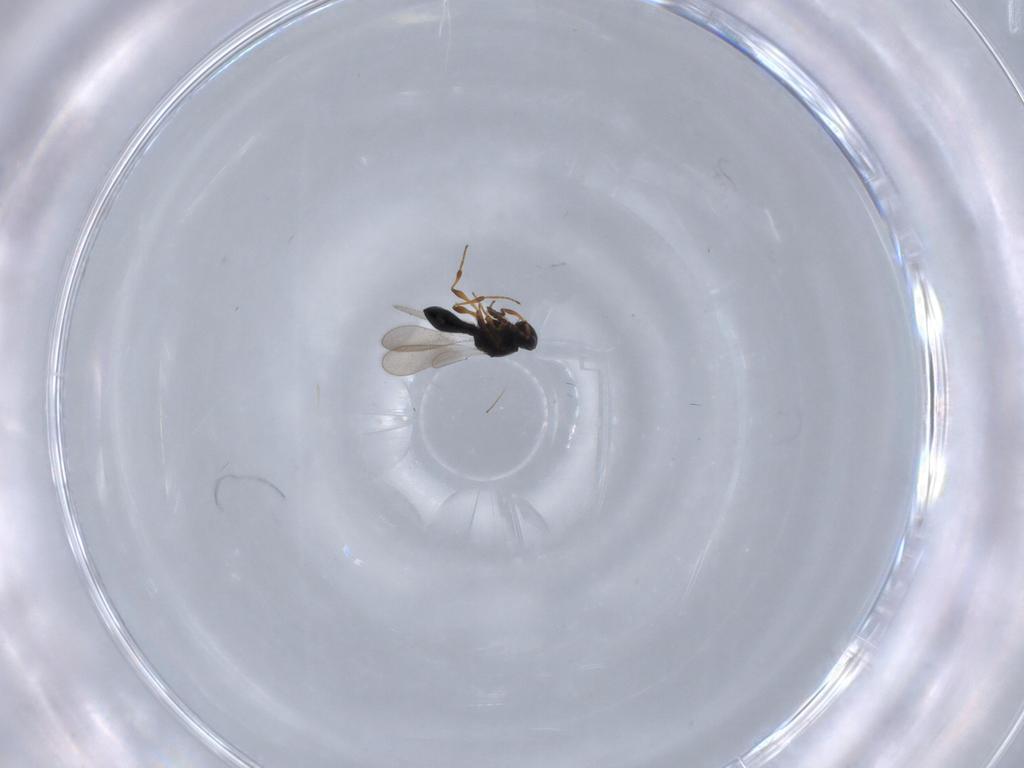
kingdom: Animalia
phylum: Arthropoda
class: Insecta
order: Hymenoptera
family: Platygastridae
